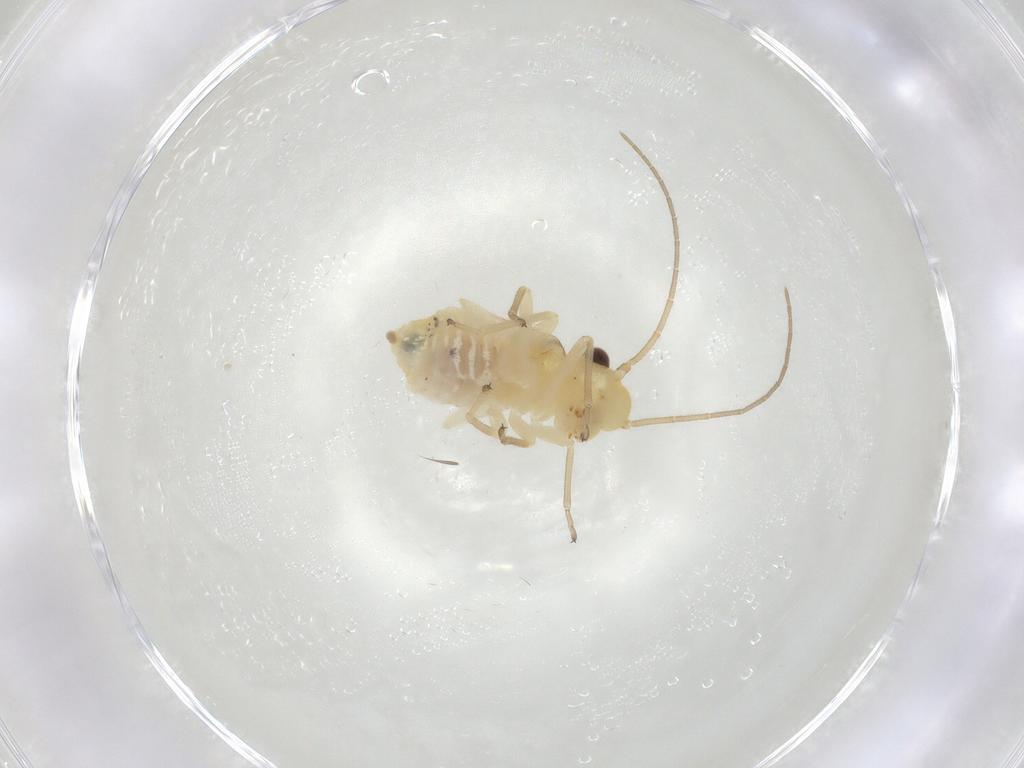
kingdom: Animalia
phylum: Arthropoda
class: Insecta
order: Psocodea
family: Caeciliusidae
